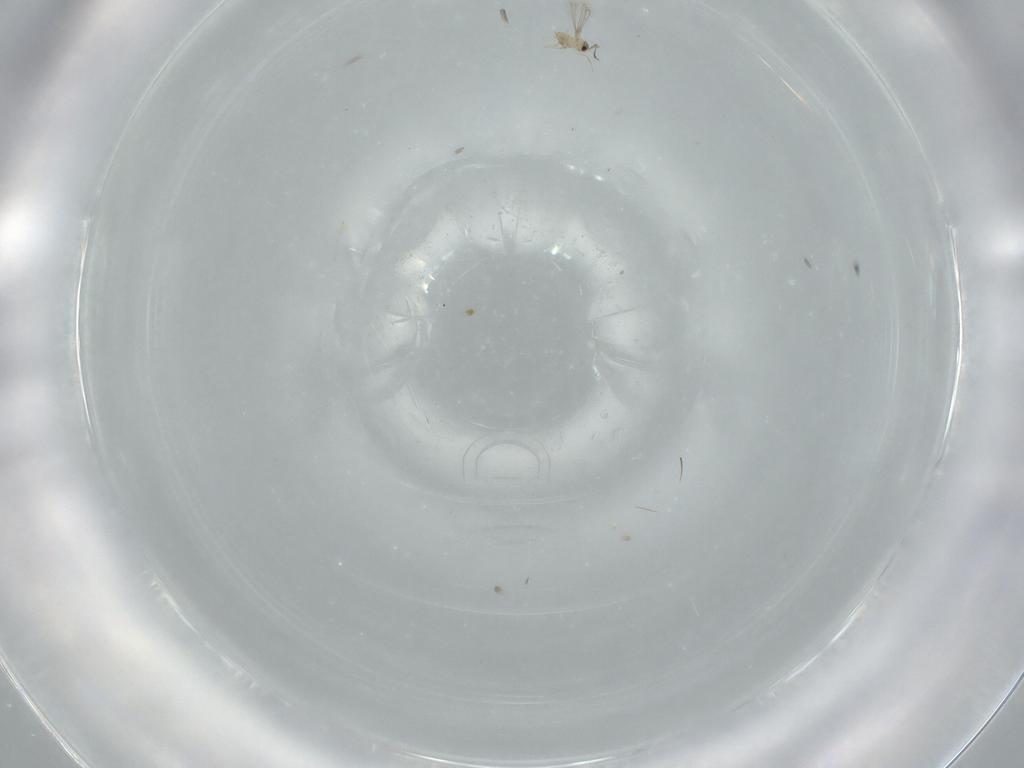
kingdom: Animalia
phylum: Arthropoda
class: Insecta
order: Hymenoptera
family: Mymaridae
